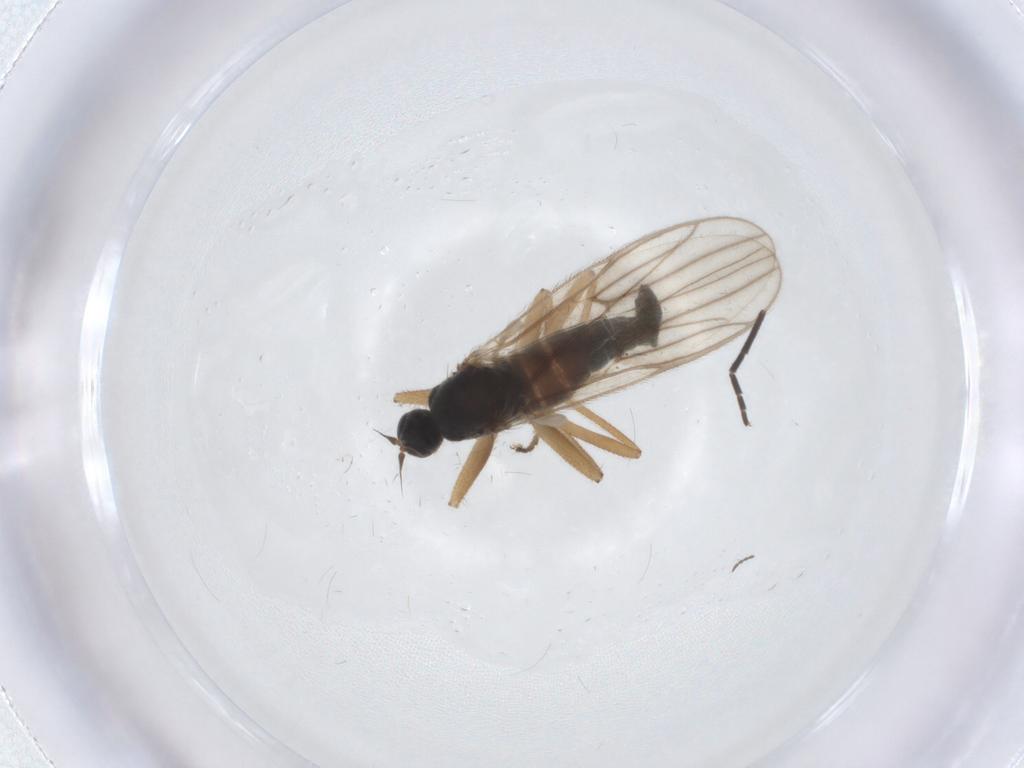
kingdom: Animalia
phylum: Arthropoda
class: Insecta
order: Diptera
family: Hybotidae
